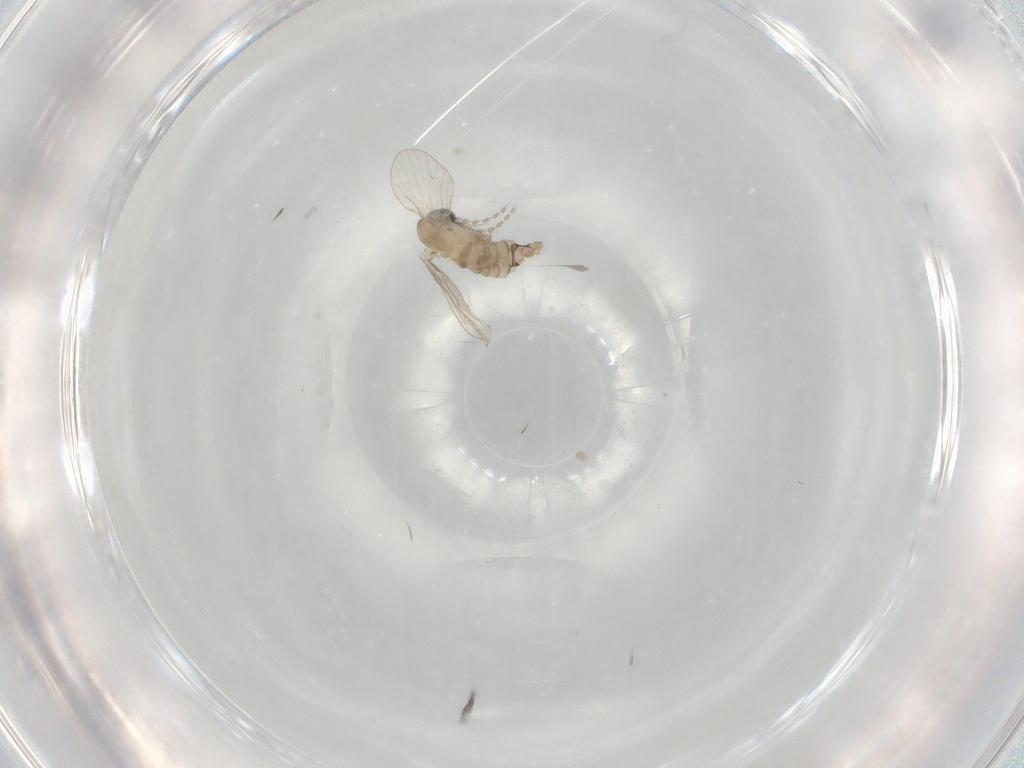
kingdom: Animalia
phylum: Arthropoda
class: Insecta
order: Diptera
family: Psychodidae
